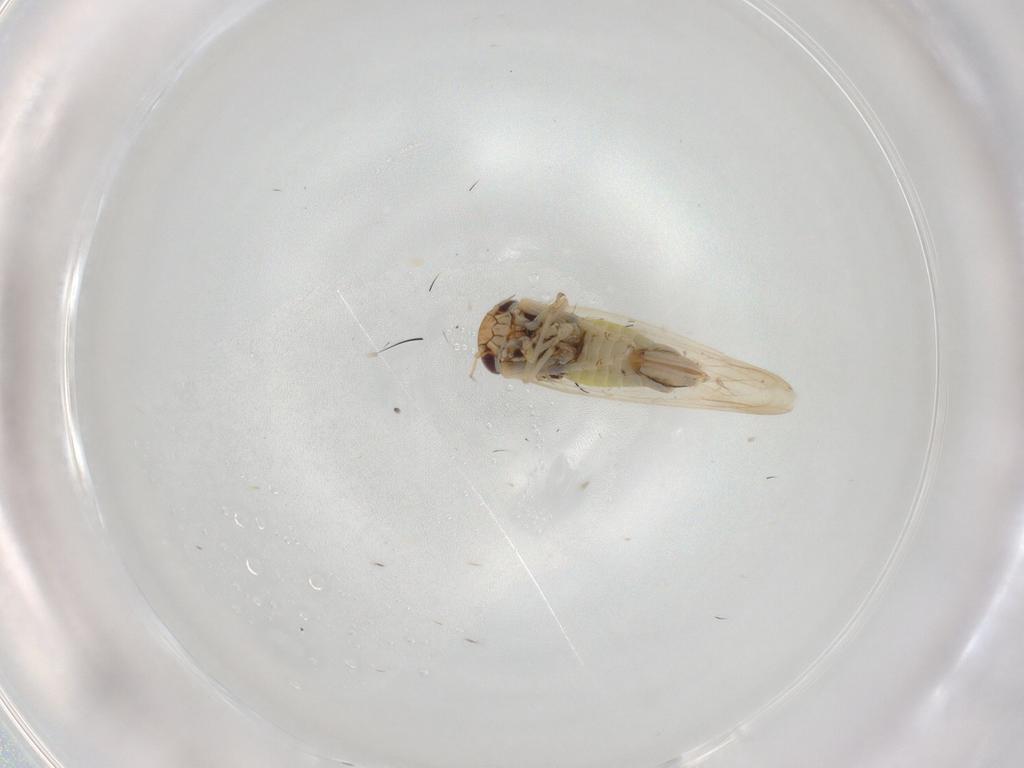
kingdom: Animalia
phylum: Arthropoda
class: Insecta
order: Hemiptera
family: Cicadellidae
